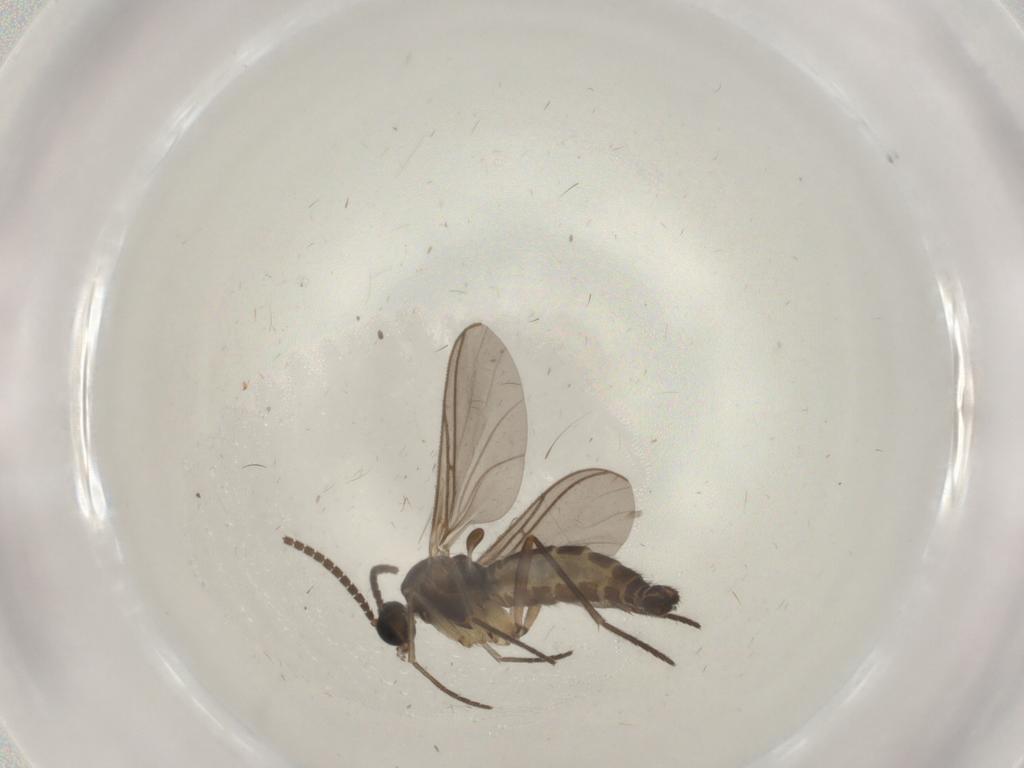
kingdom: Animalia
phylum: Arthropoda
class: Insecta
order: Diptera
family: Sciaridae
